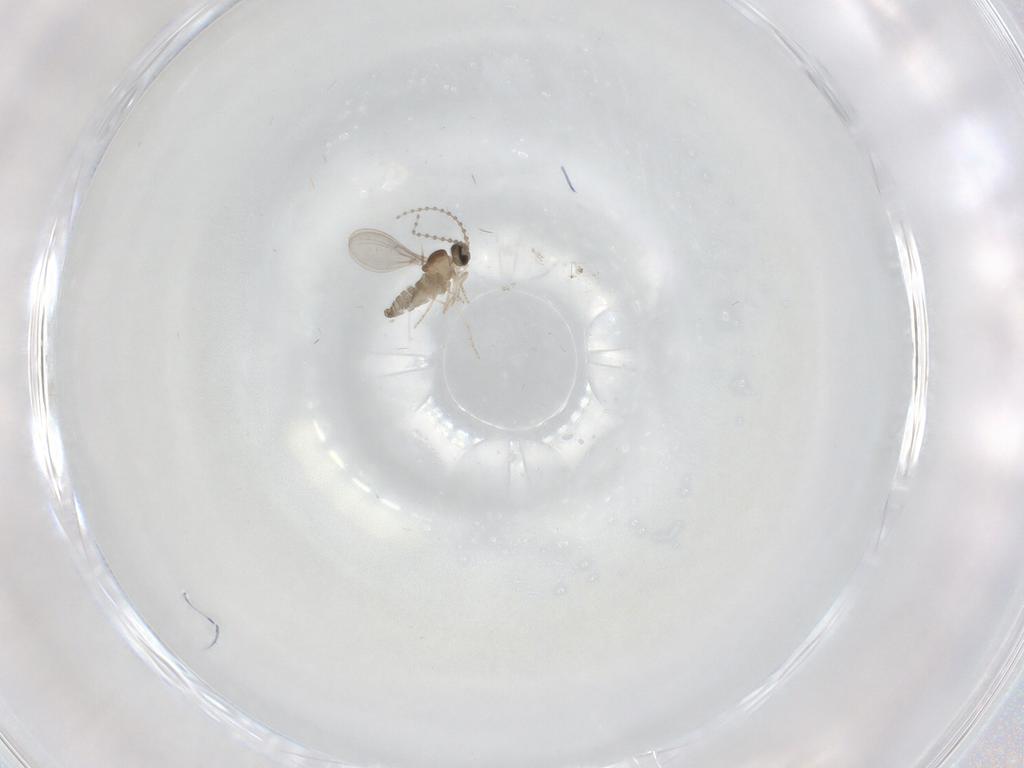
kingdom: Animalia
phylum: Arthropoda
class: Insecta
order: Diptera
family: Cecidomyiidae
